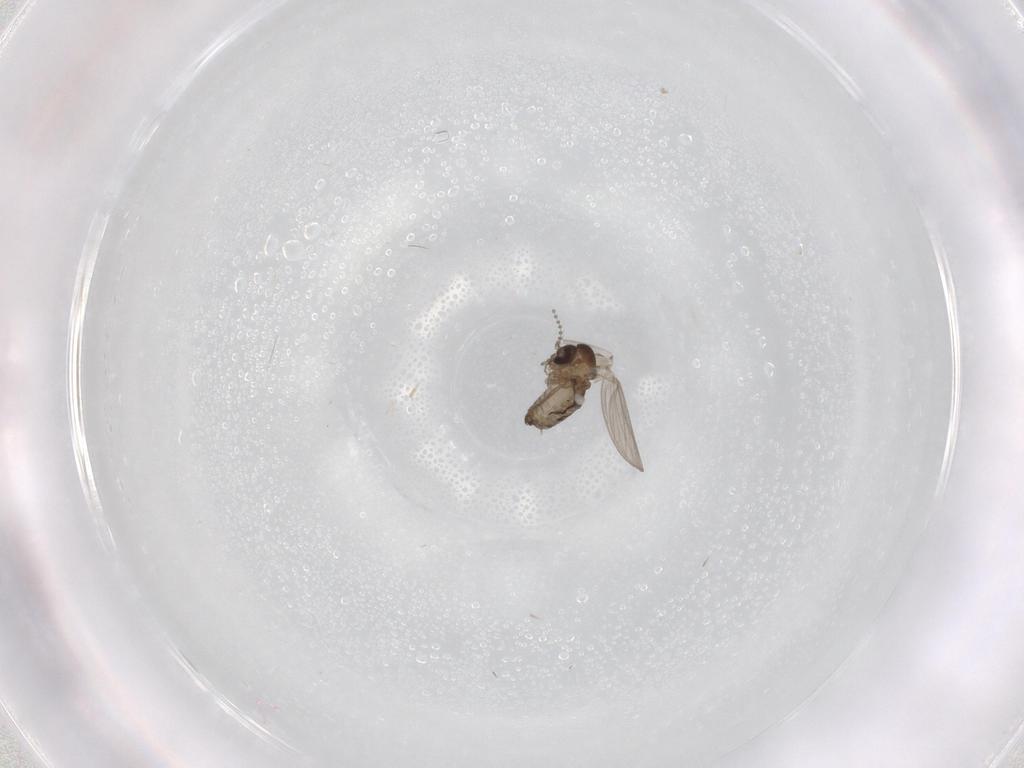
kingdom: Animalia
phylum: Arthropoda
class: Insecta
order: Diptera
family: Psychodidae
